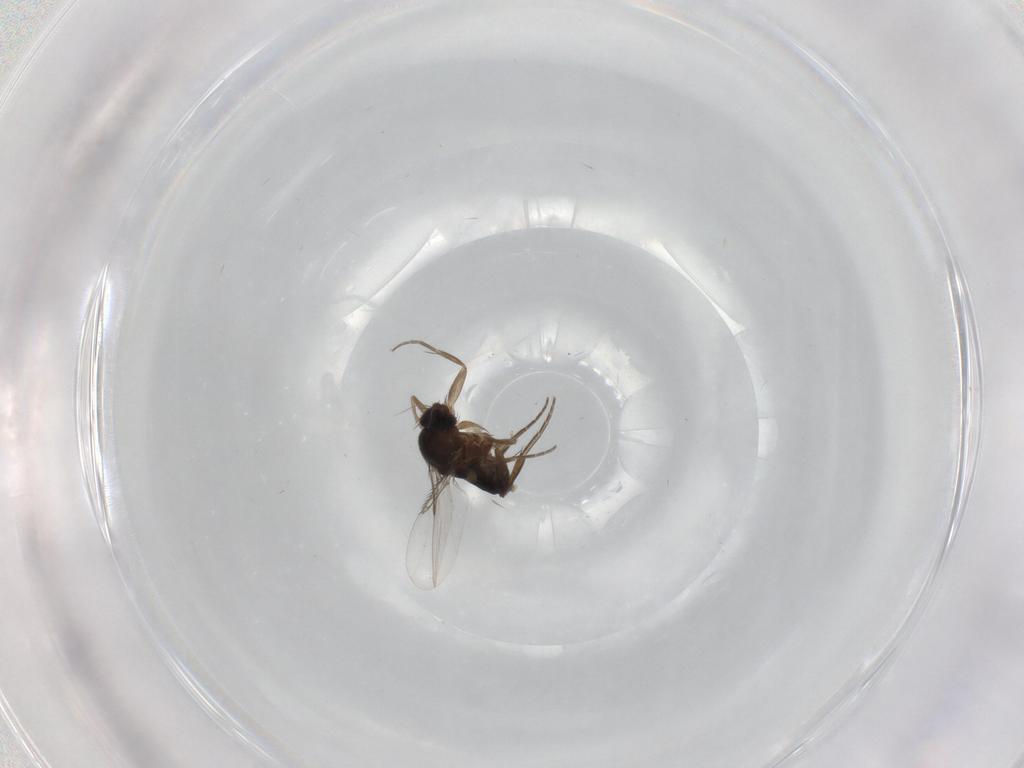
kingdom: Animalia
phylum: Arthropoda
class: Insecta
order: Diptera
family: Phoridae
